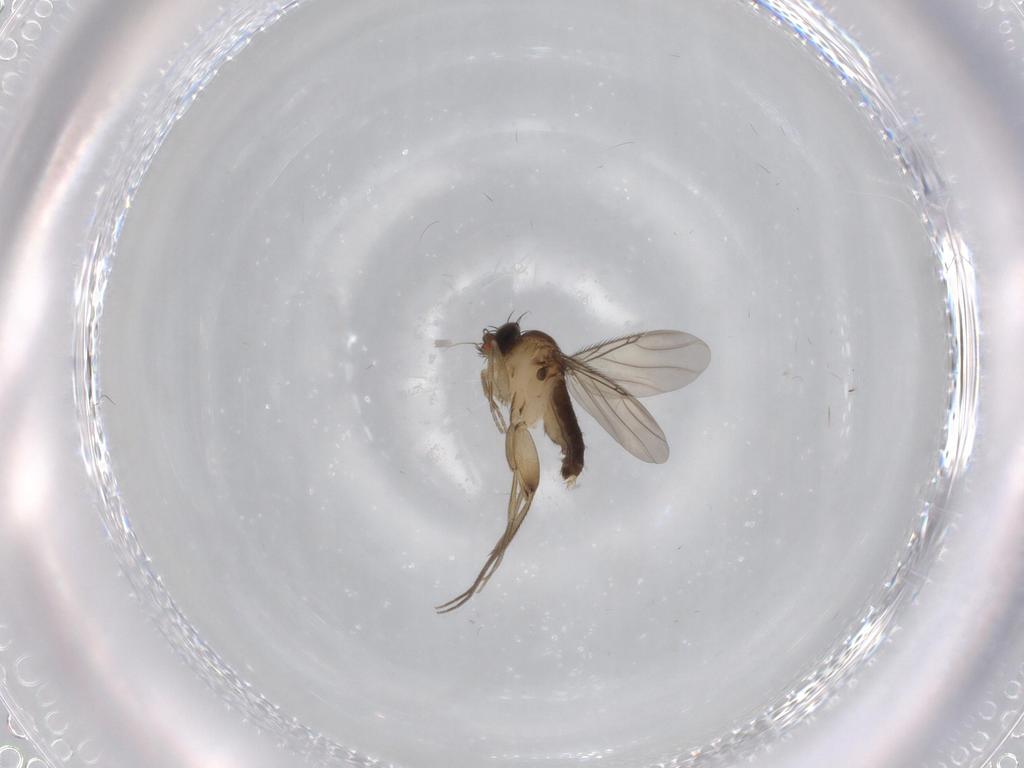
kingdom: Animalia
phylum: Arthropoda
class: Insecta
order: Diptera
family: Phoridae
